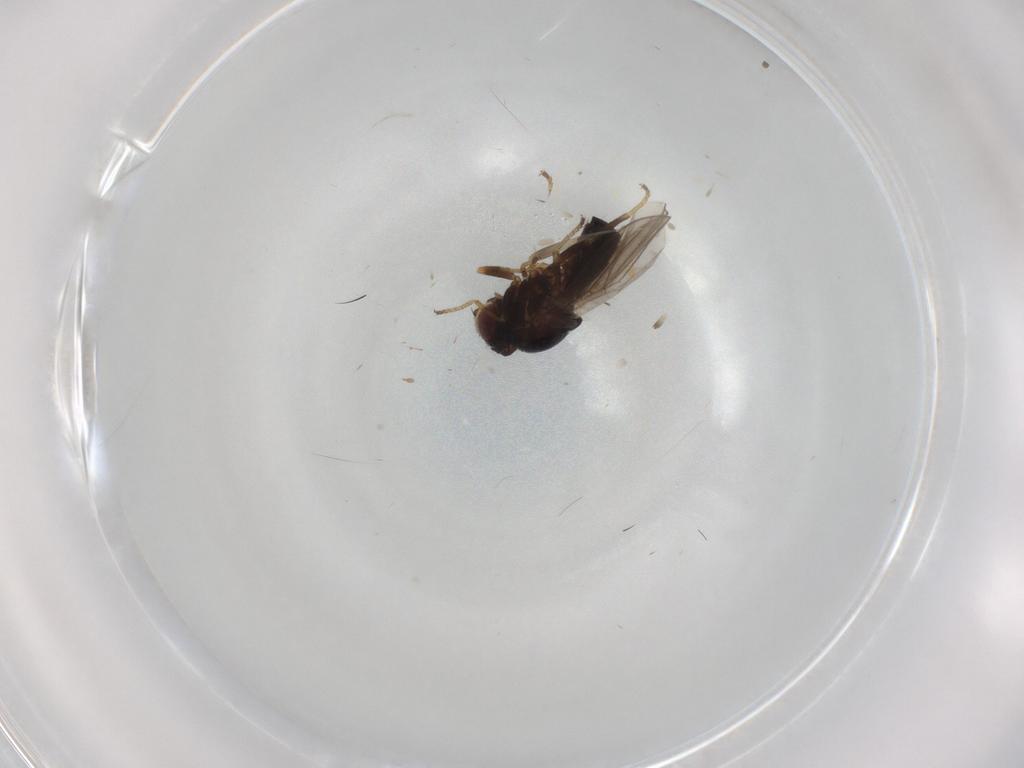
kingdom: Animalia
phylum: Arthropoda
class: Insecta
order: Diptera
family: Chloropidae
